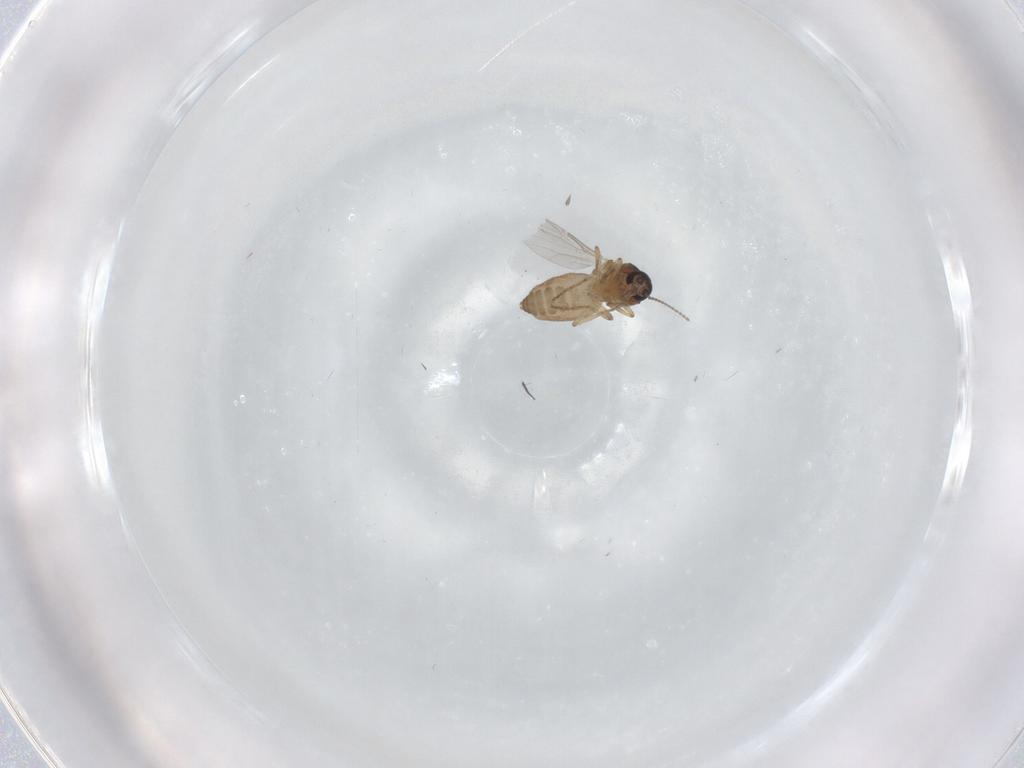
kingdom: Animalia
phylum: Arthropoda
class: Insecta
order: Diptera
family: Ceratopogonidae
